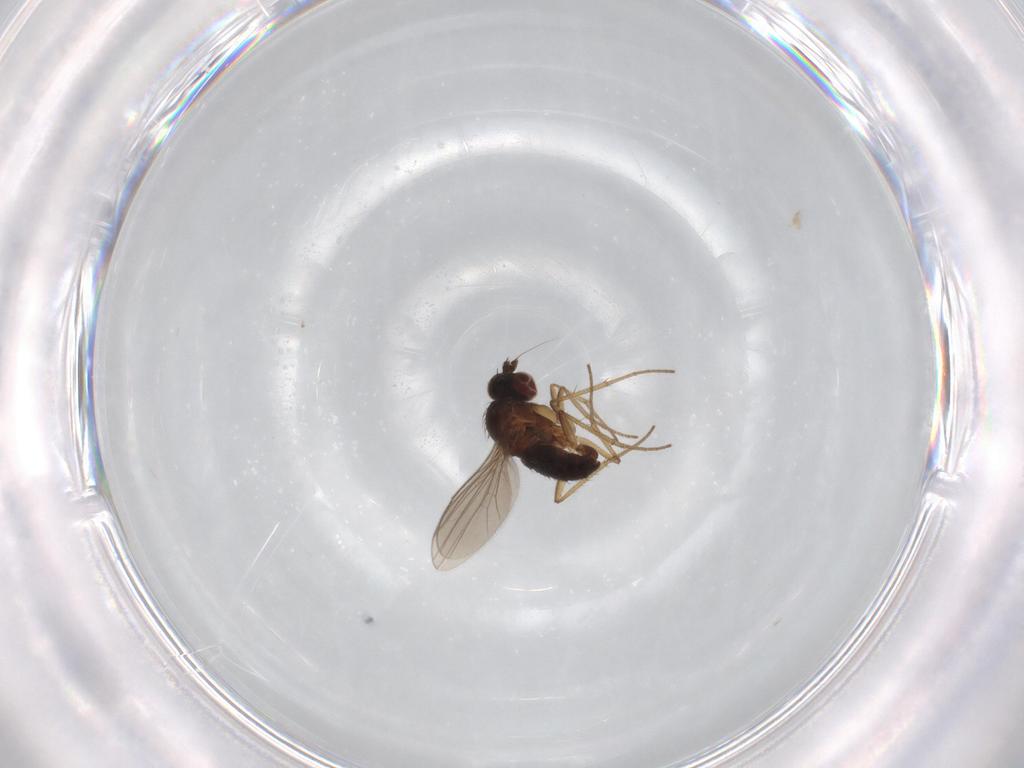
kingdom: Animalia
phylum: Arthropoda
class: Insecta
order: Diptera
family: Dolichopodidae
